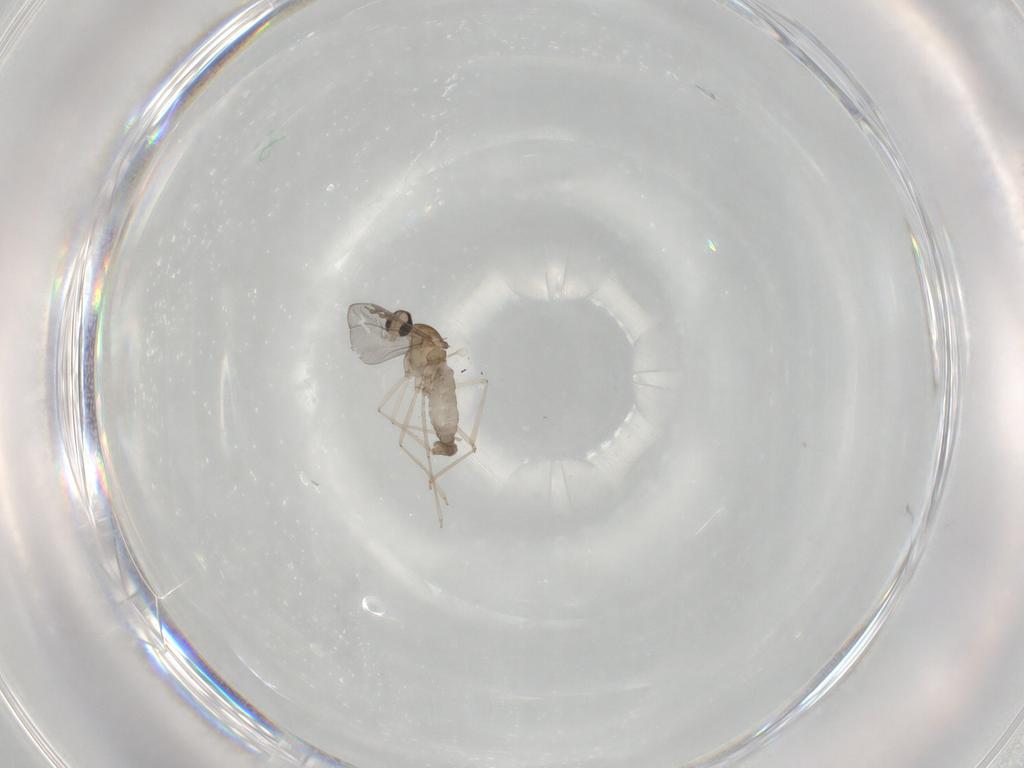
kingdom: Animalia
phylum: Arthropoda
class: Insecta
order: Diptera
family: Cecidomyiidae
